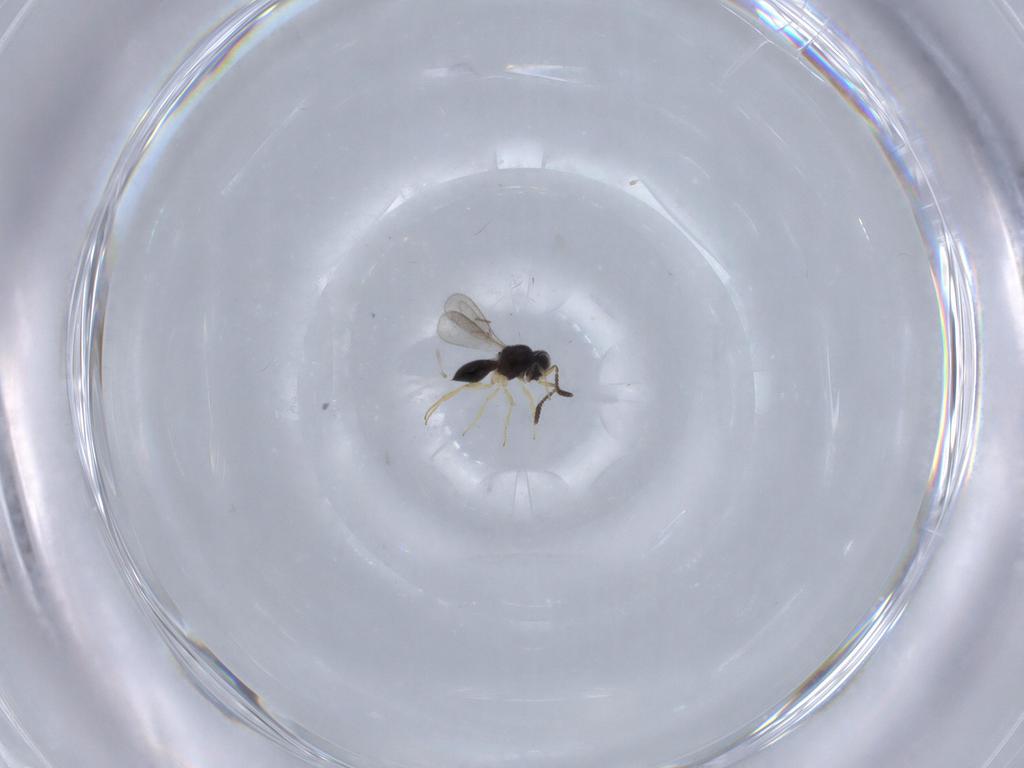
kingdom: Animalia
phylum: Arthropoda
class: Insecta
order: Hymenoptera
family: Scelionidae
